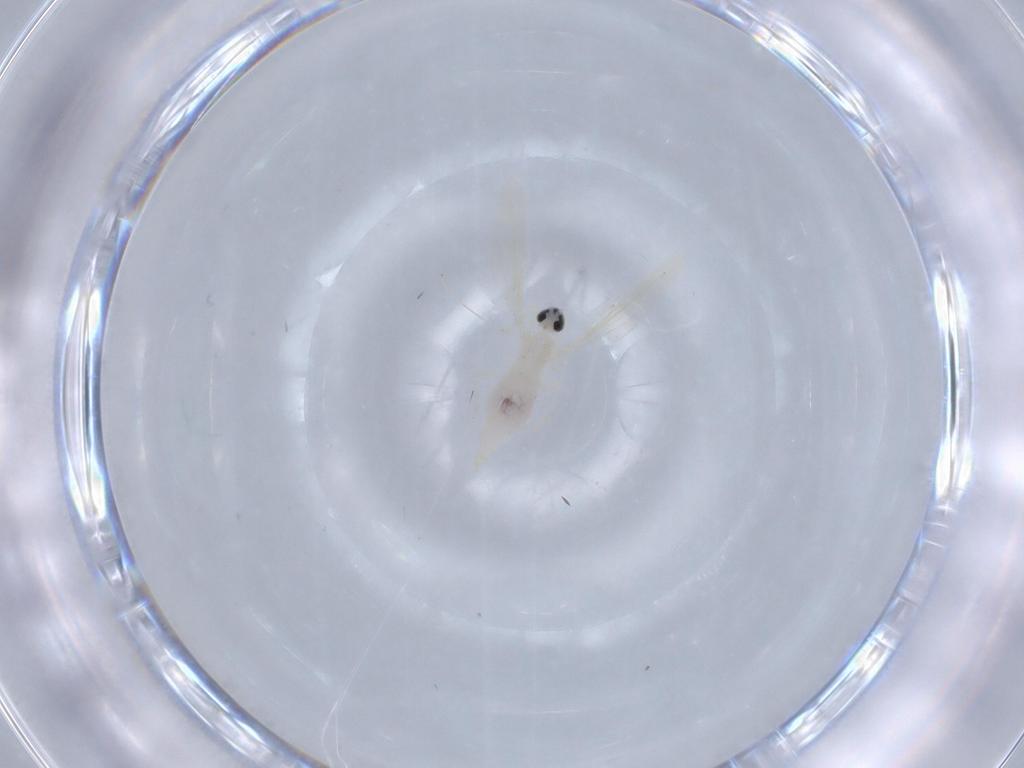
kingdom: Animalia
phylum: Arthropoda
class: Insecta
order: Diptera
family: Cecidomyiidae
